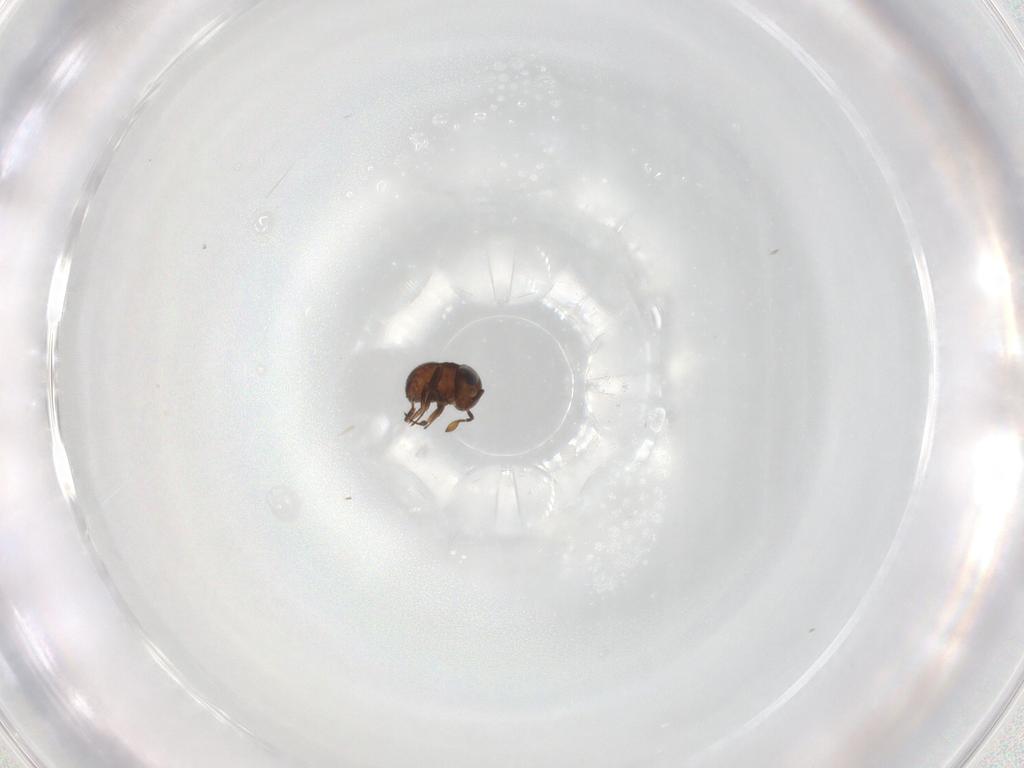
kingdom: Animalia
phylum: Arthropoda
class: Insecta
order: Hymenoptera
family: Scelionidae
